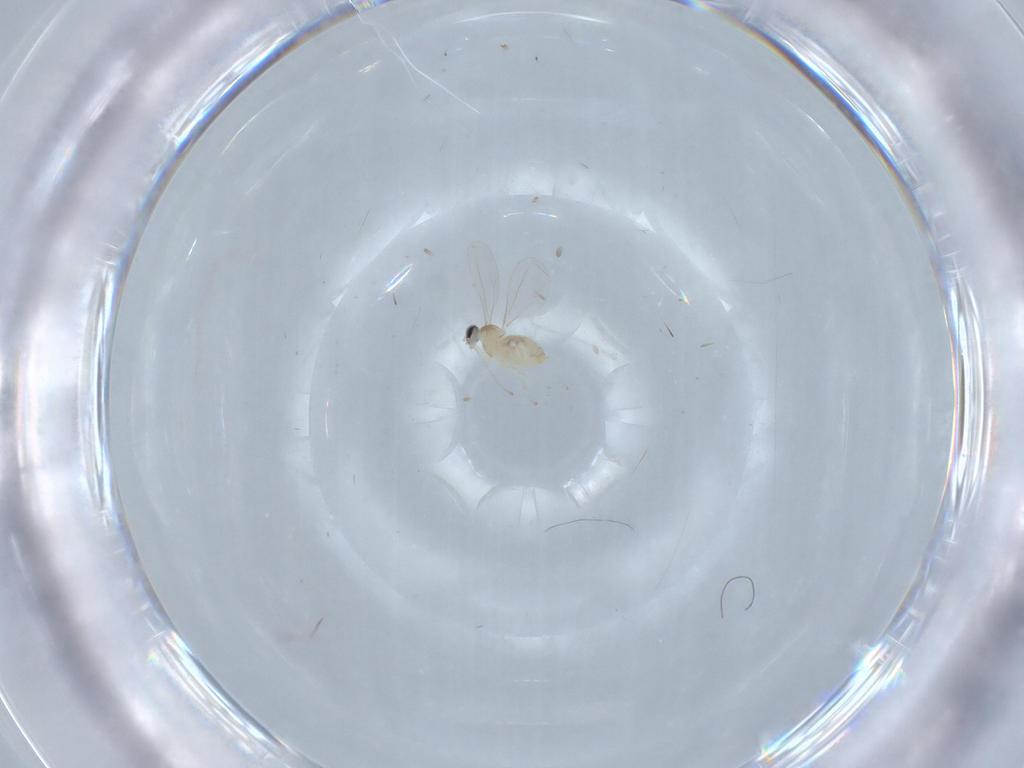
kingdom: Animalia
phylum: Arthropoda
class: Insecta
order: Diptera
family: Cecidomyiidae
